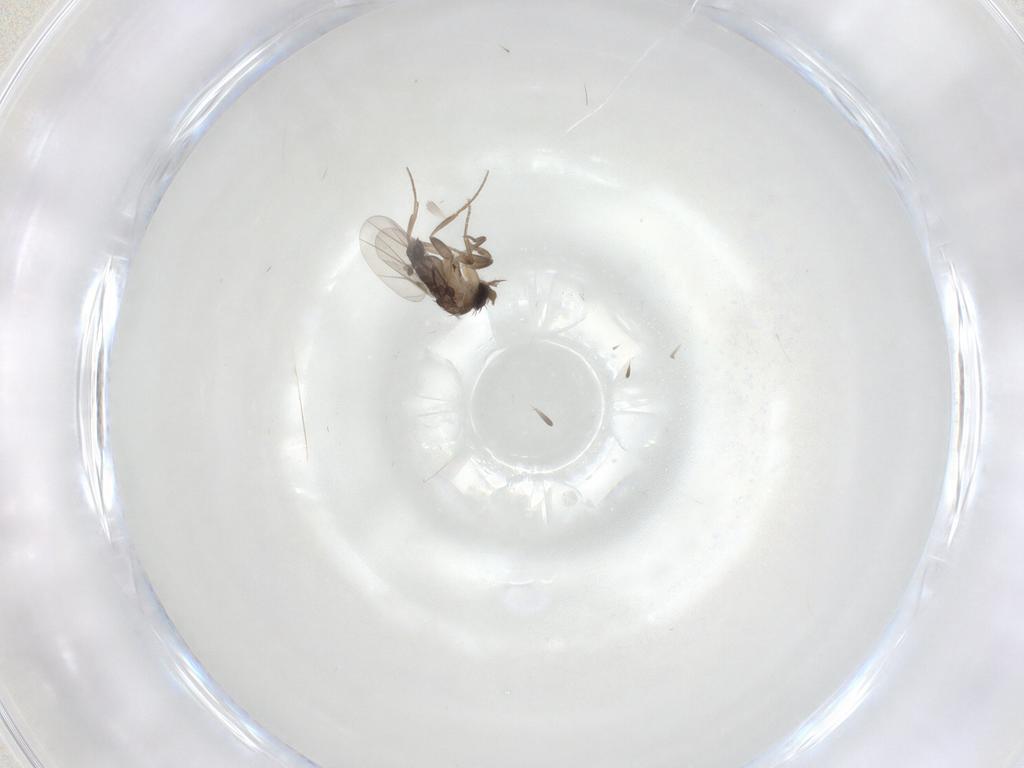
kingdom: Animalia
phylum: Arthropoda
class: Insecta
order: Diptera
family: Phoridae
